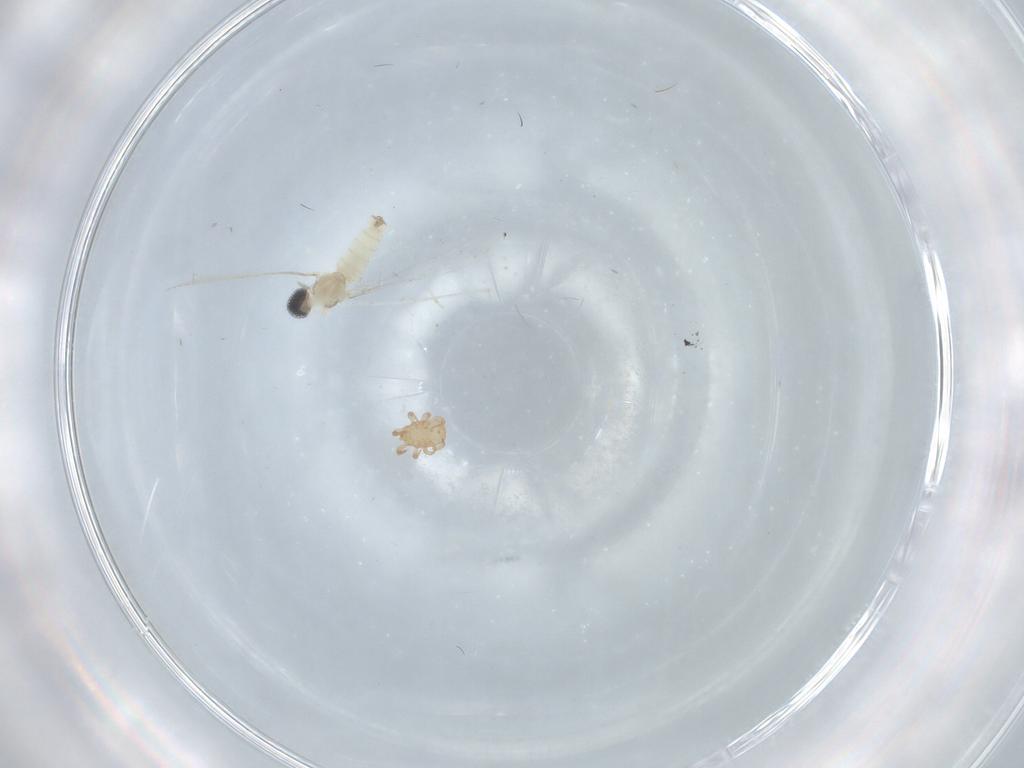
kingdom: Animalia
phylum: Arthropoda
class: Insecta
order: Diptera
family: Cecidomyiidae
